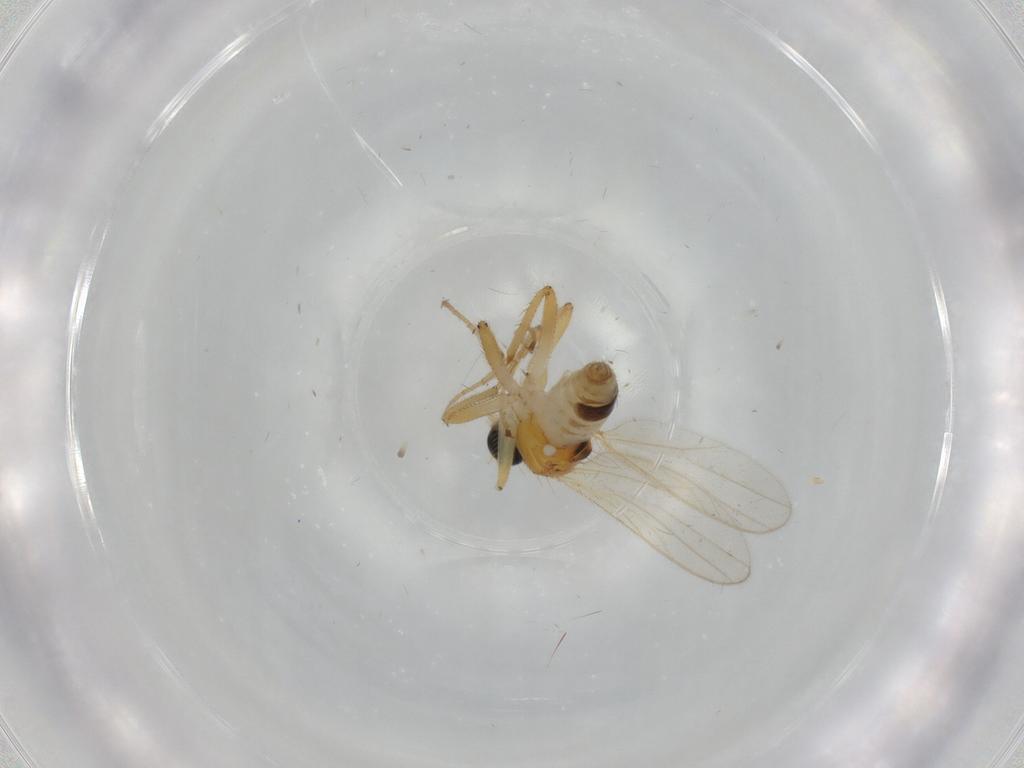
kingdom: Animalia
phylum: Arthropoda
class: Insecta
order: Diptera
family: Hybotidae
